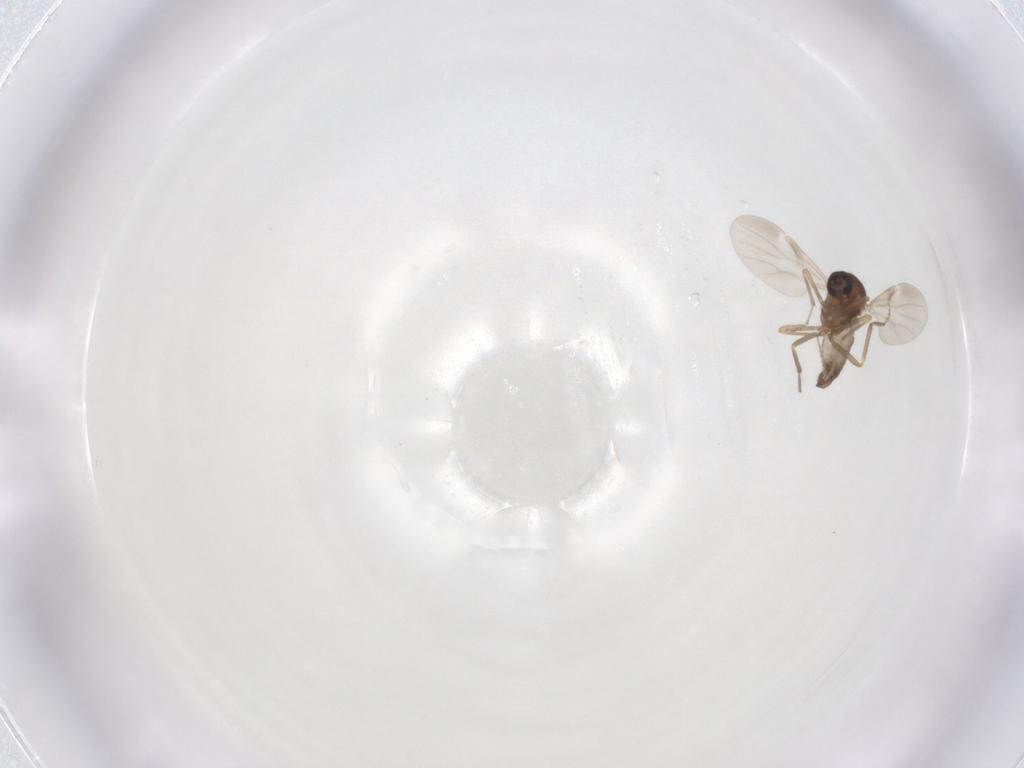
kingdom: Animalia
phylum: Arthropoda
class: Insecta
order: Diptera
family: Ceratopogonidae
